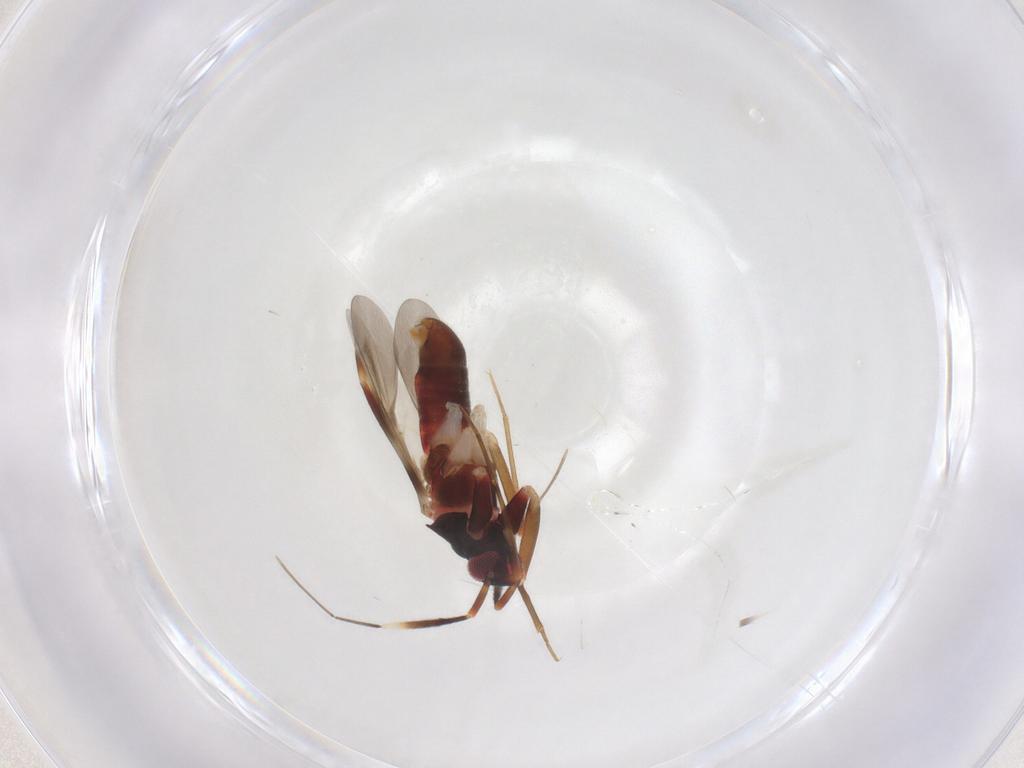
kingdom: Animalia
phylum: Arthropoda
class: Insecta
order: Hemiptera
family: Miridae
